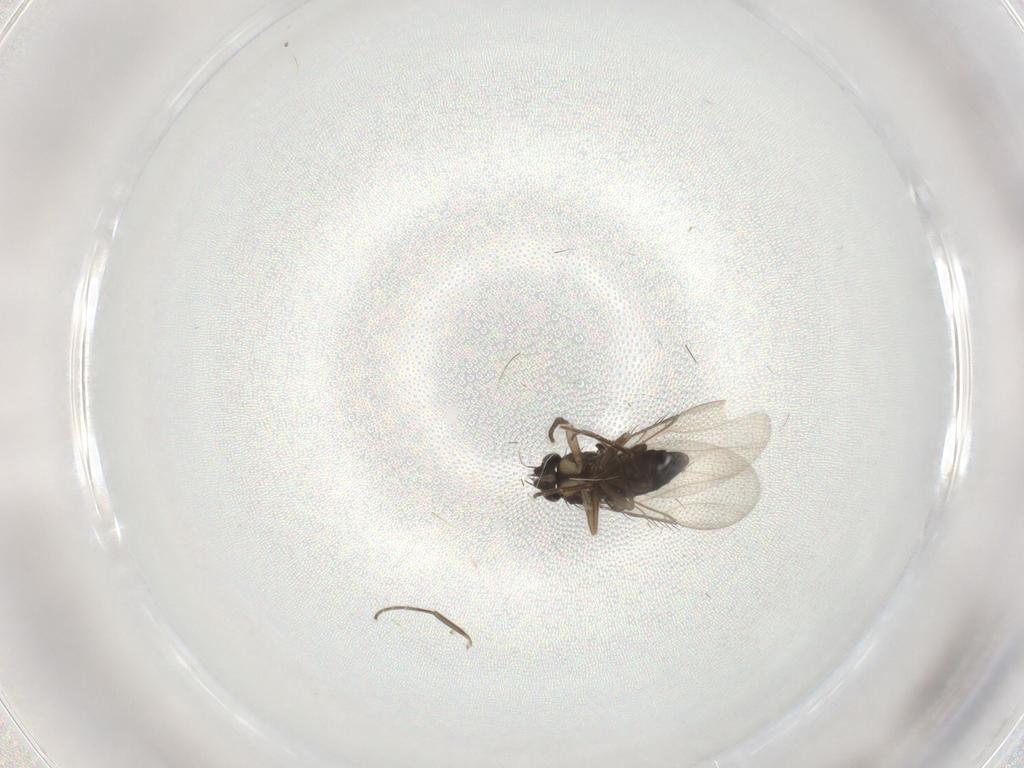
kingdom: Animalia
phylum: Arthropoda
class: Insecta
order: Diptera
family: Phoridae
